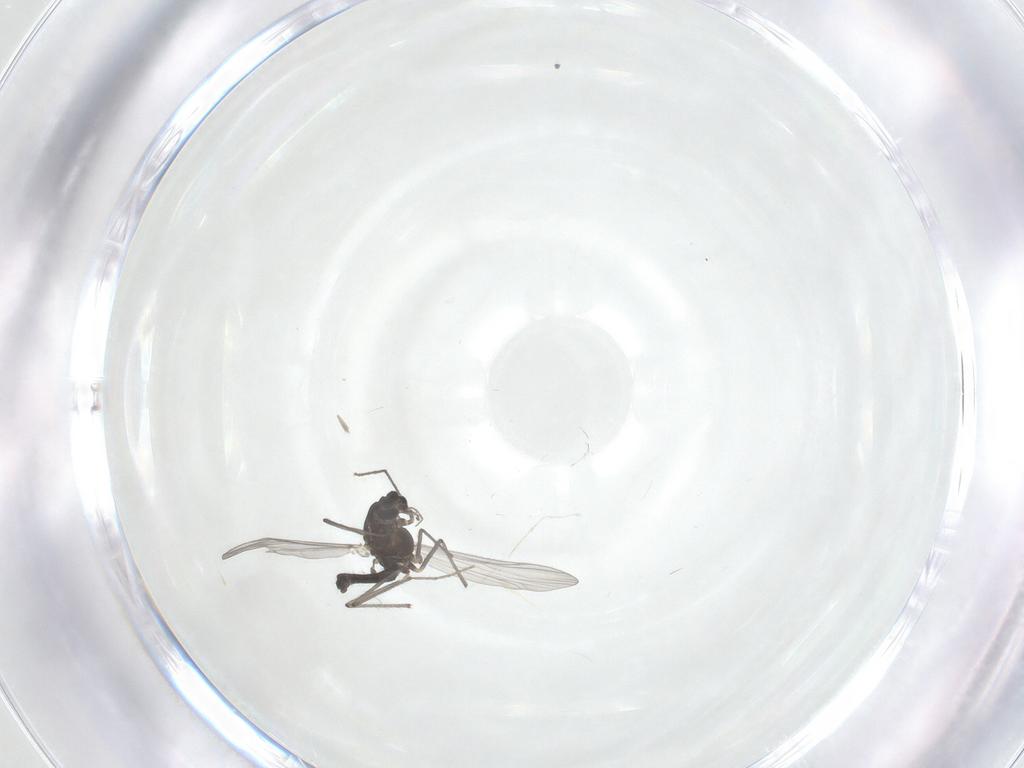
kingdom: Animalia
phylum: Arthropoda
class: Insecta
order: Diptera
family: Chironomidae
